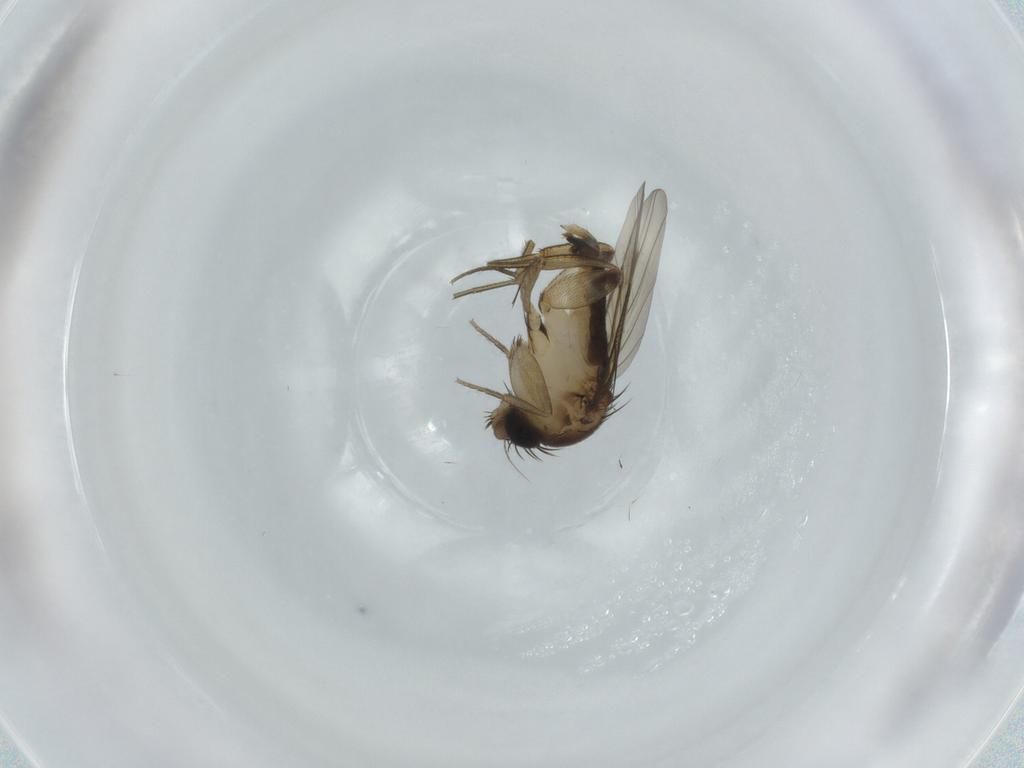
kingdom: Animalia
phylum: Arthropoda
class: Insecta
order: Diptera
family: Phoridae
